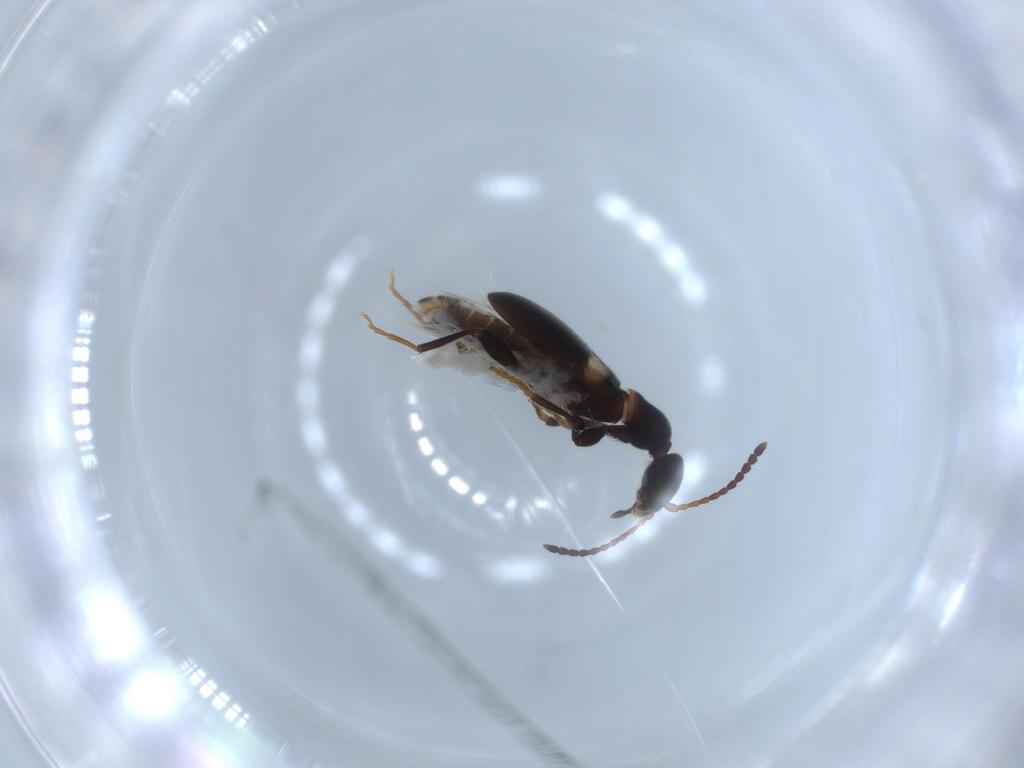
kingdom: Animalia
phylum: Arthropoda
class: Insecta
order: Coleoptera
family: Anthicidae
